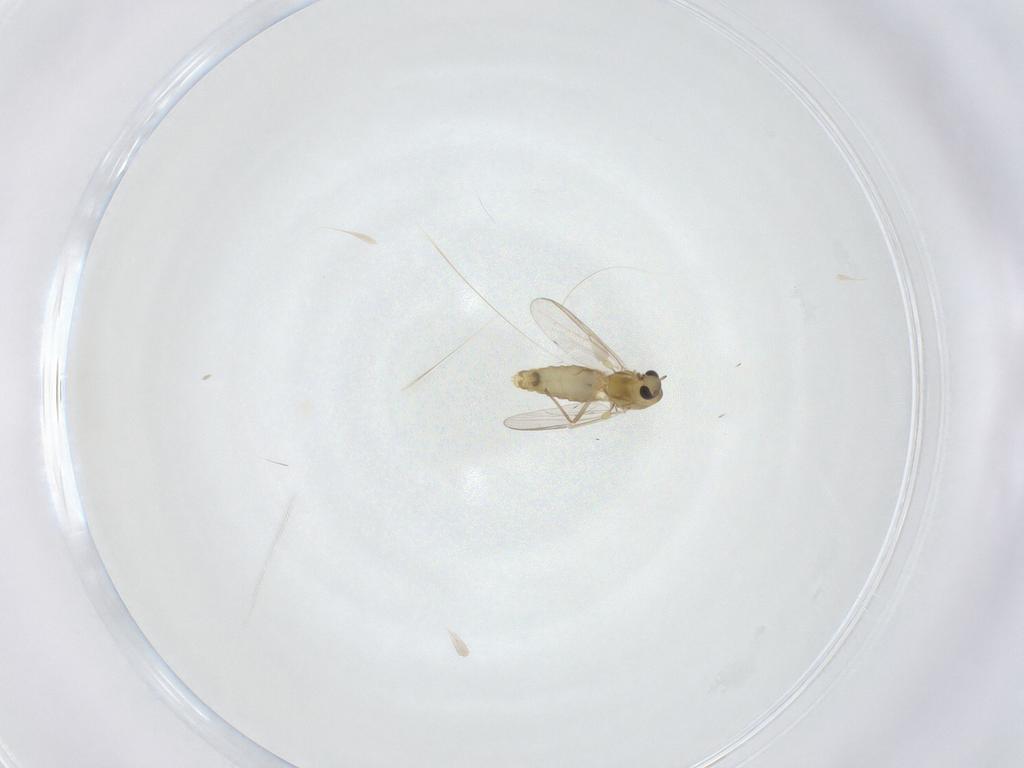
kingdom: Animalia
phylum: Arthropoda
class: Insecta
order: Diptera
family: Chironomidae
